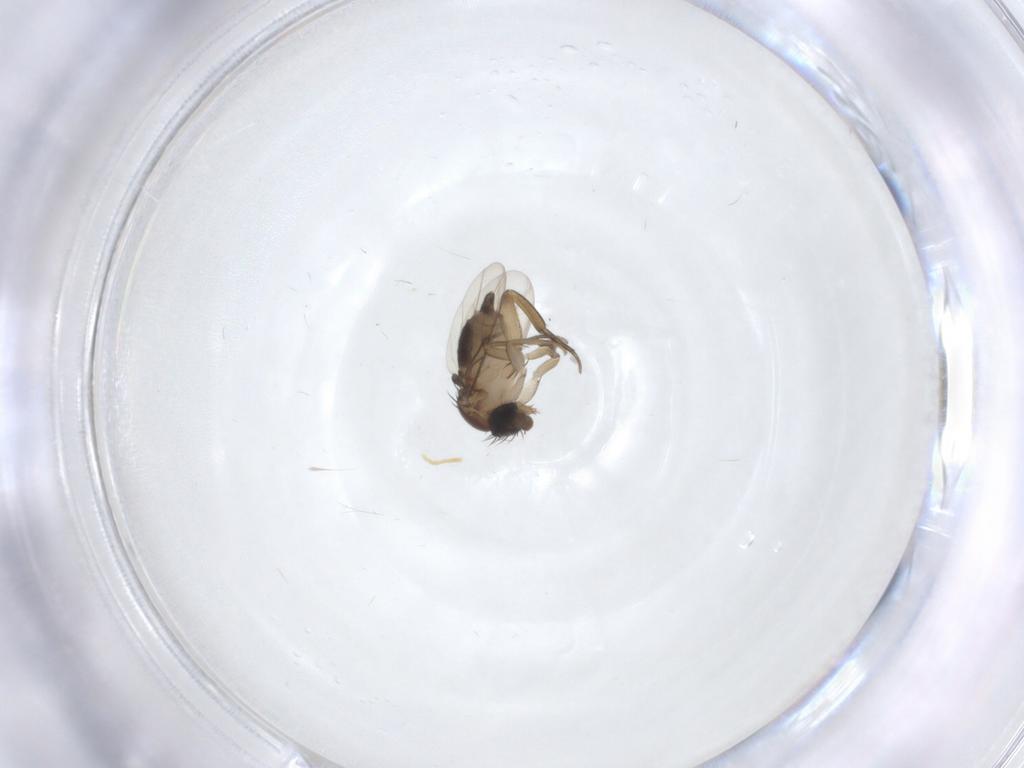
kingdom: Animalia
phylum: Arthropoda
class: Insecta
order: Diptera
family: Phoridae
